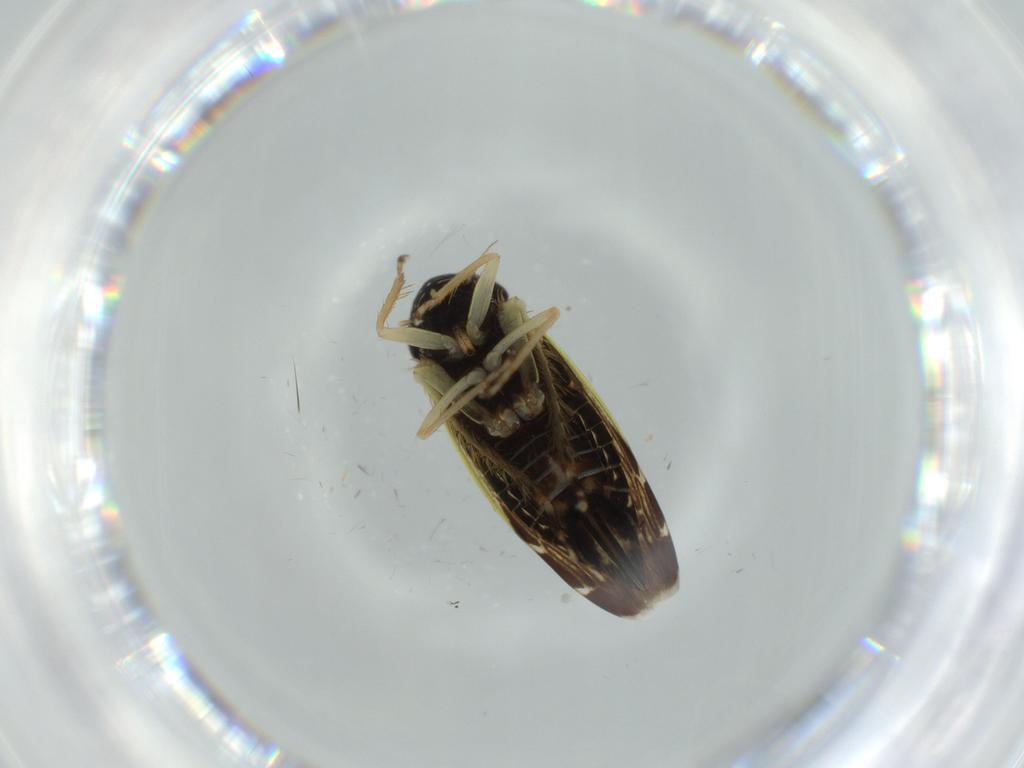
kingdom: Animalia
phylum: Arthropoda
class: Insecta
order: Hemiptera
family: Cicadellidae
